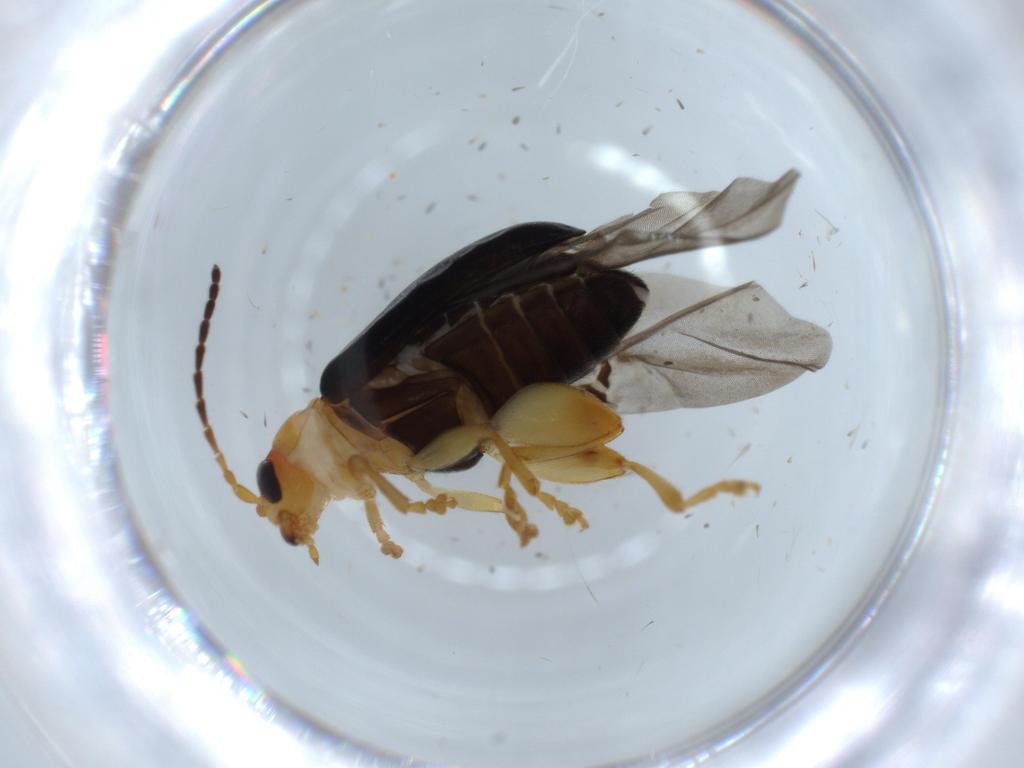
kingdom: Animalia
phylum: Arthropoda
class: Insecta
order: Coleoptera
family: Chrysomelidae
